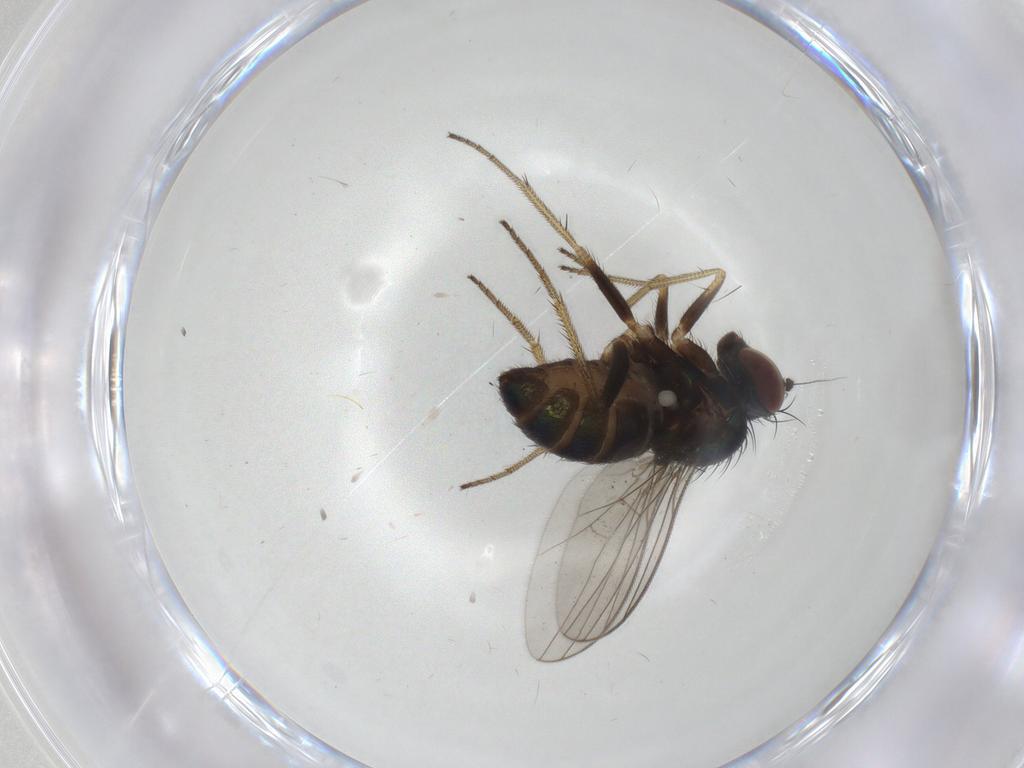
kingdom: Animalia
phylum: Arthropoda
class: Insecta
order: Diptera
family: Dolichopodidae
